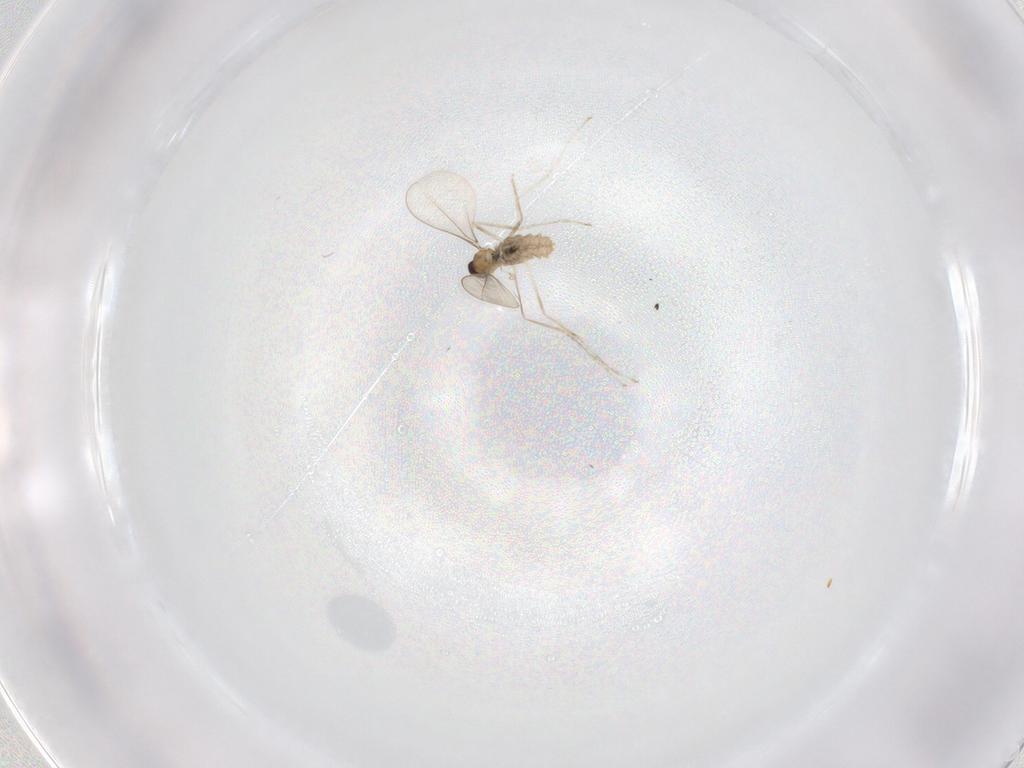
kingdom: Animalia
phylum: Arthropoda
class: Insecta
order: Diptera
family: Cecidomyiidae
